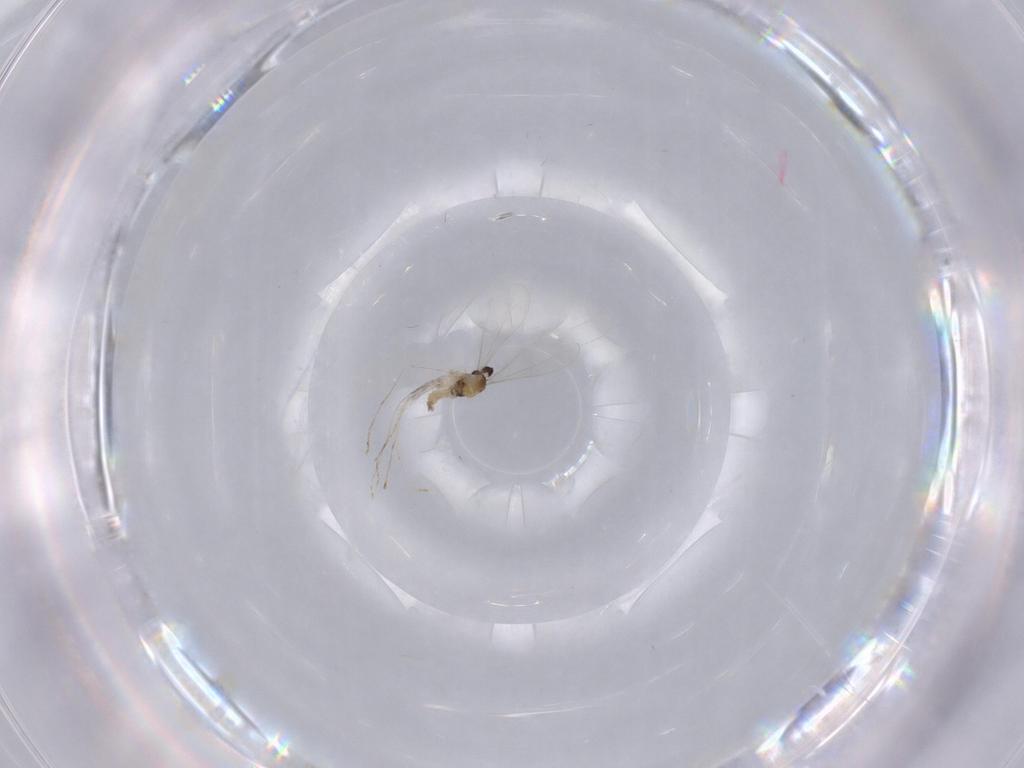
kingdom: Animalia
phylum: Arthropoda
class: Insecta
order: Diptera
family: Cecidomyiidae
